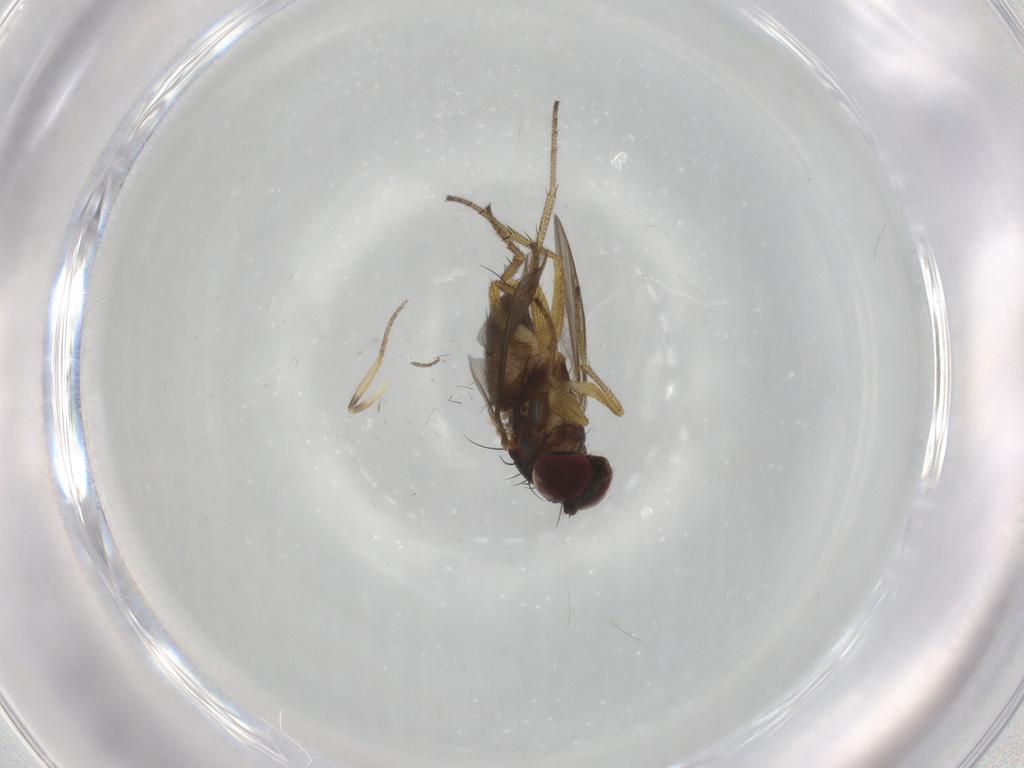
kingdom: Animalia
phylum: Arthropoda
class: Insecta
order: Diptera
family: Dolichopodidae
